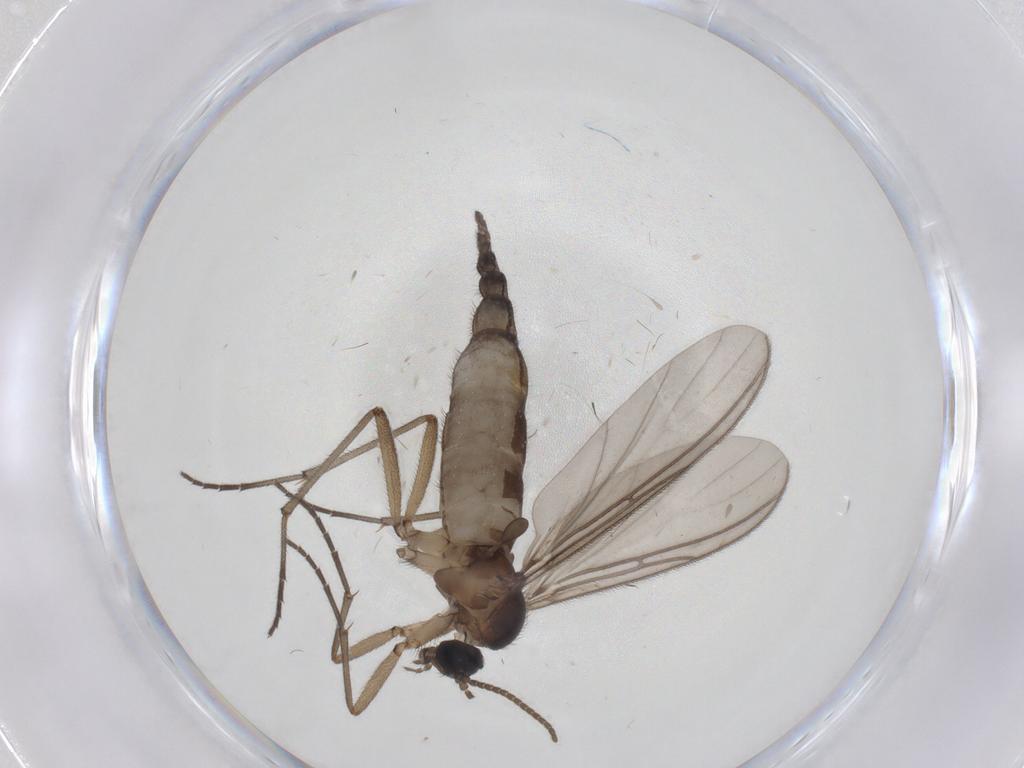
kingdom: Animalia
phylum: Arthropoda
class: Insecta
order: Diptera
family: Sciaridae
